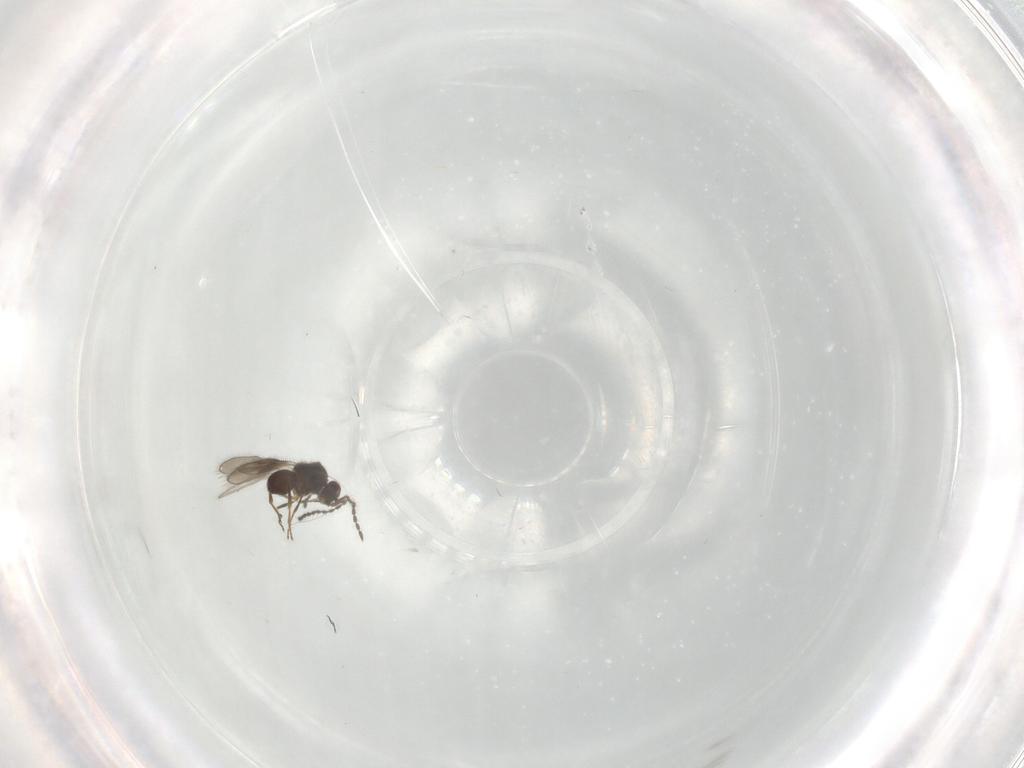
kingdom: Animalia
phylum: Arthropoda
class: Insecta
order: Hymenoptera
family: Ceraphronidae
